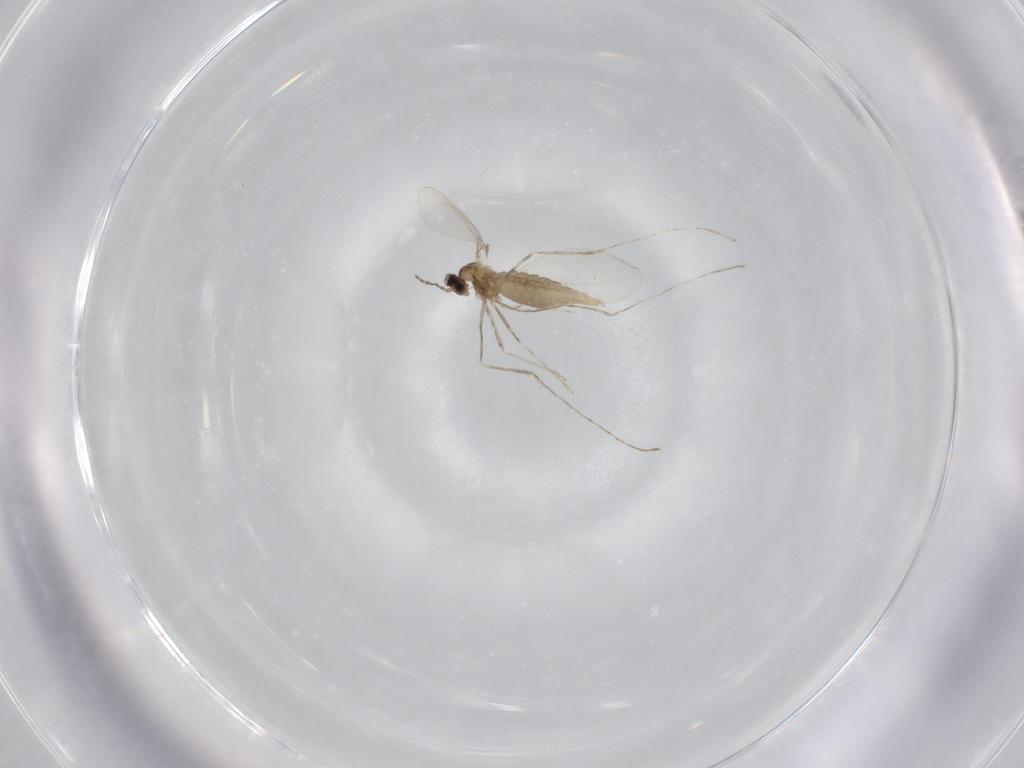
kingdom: Animalia
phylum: Arthropoda
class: Insecta
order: Diptera
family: Cecidomyiidae
